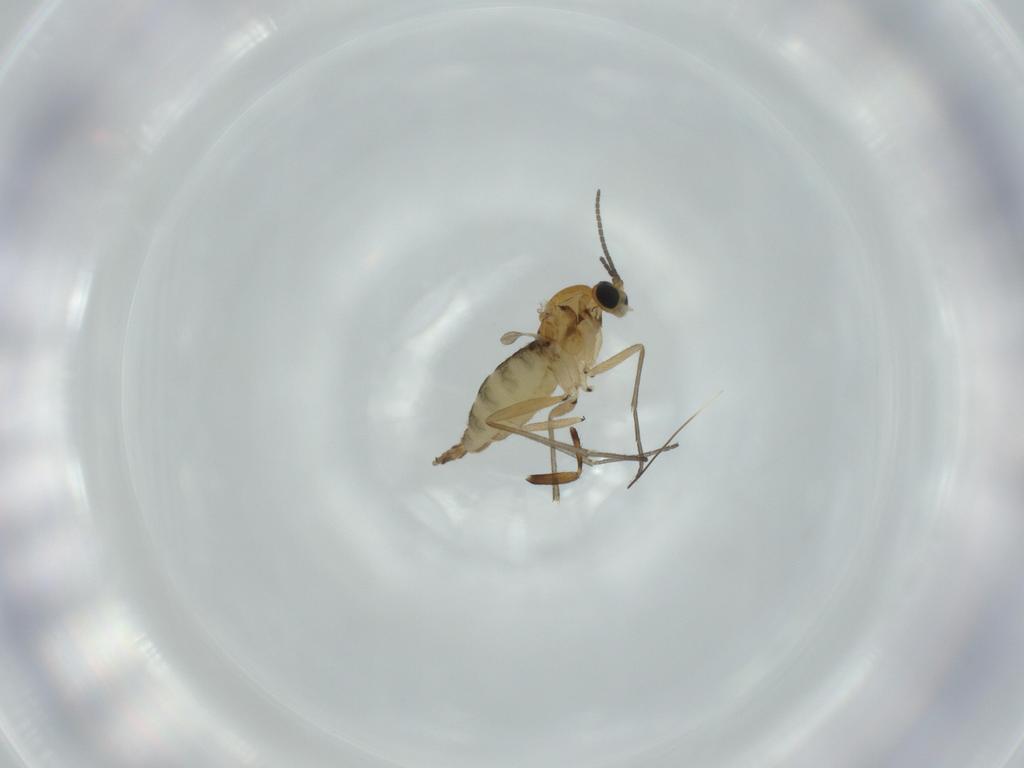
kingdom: Animalia
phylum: Arthropoda
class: Insecta
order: Diptera
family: Cecidomyiidae
